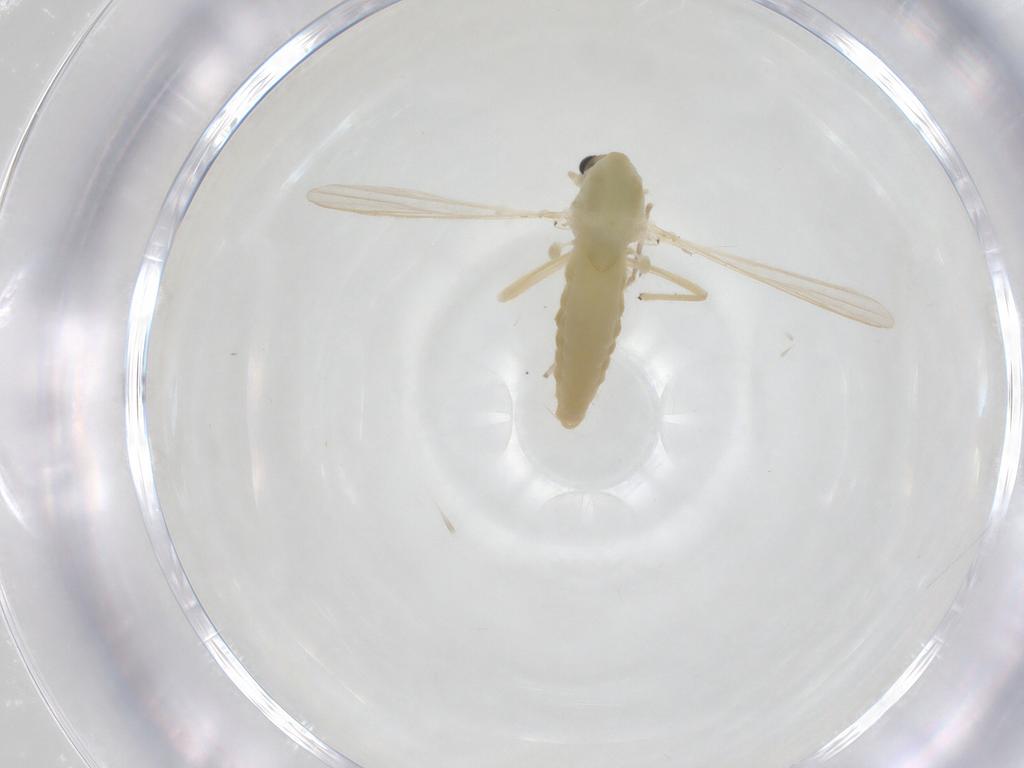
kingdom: Animalia
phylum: Arthropoda
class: Insecta
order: Diptera
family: Chironomidae
